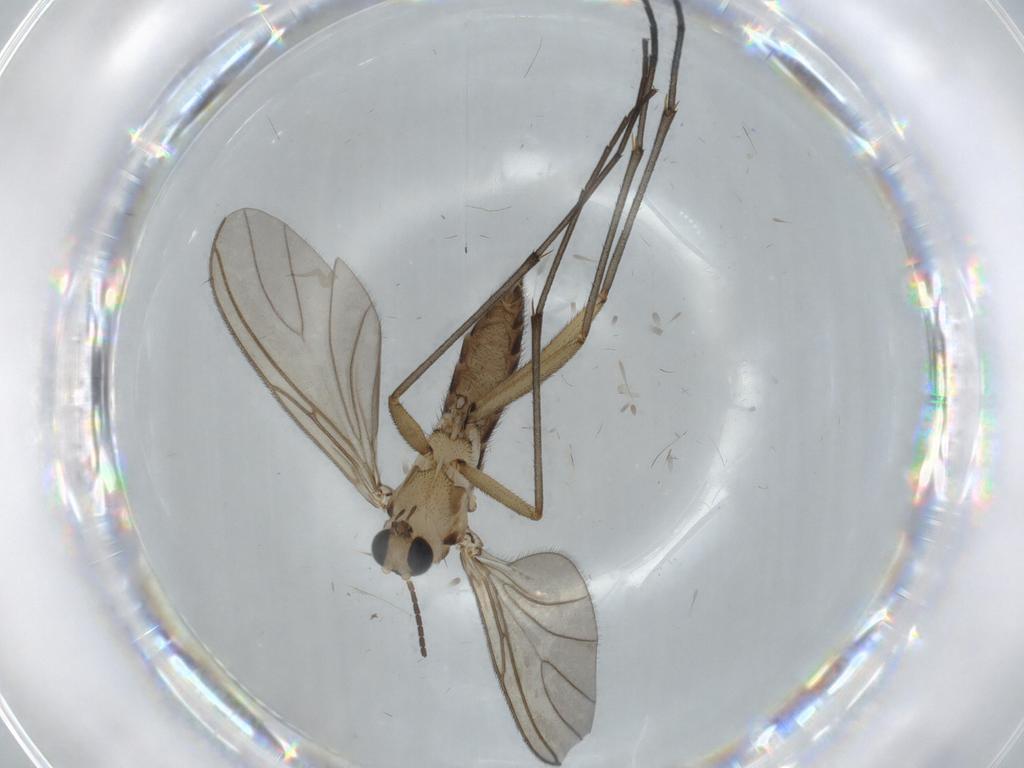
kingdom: Animalia
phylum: Arthropoda
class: Insecta
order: Diptera
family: Sciaridae
